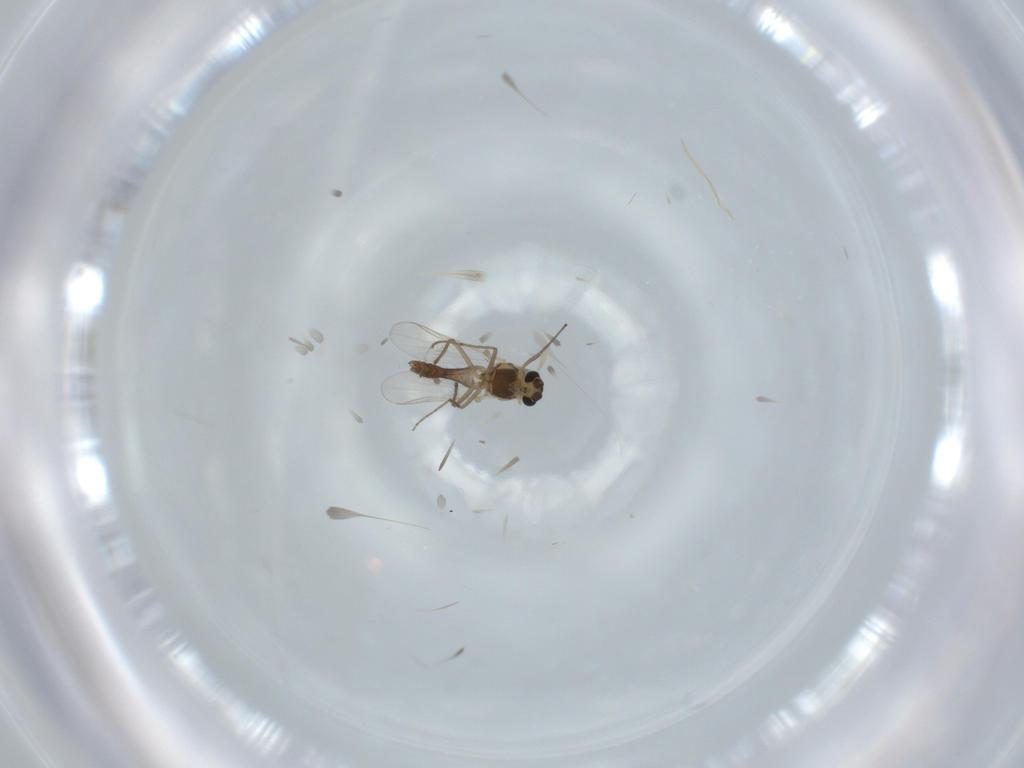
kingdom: Animalia
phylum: Arthropoda
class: Insecta
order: Diptera
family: Chironomidae
